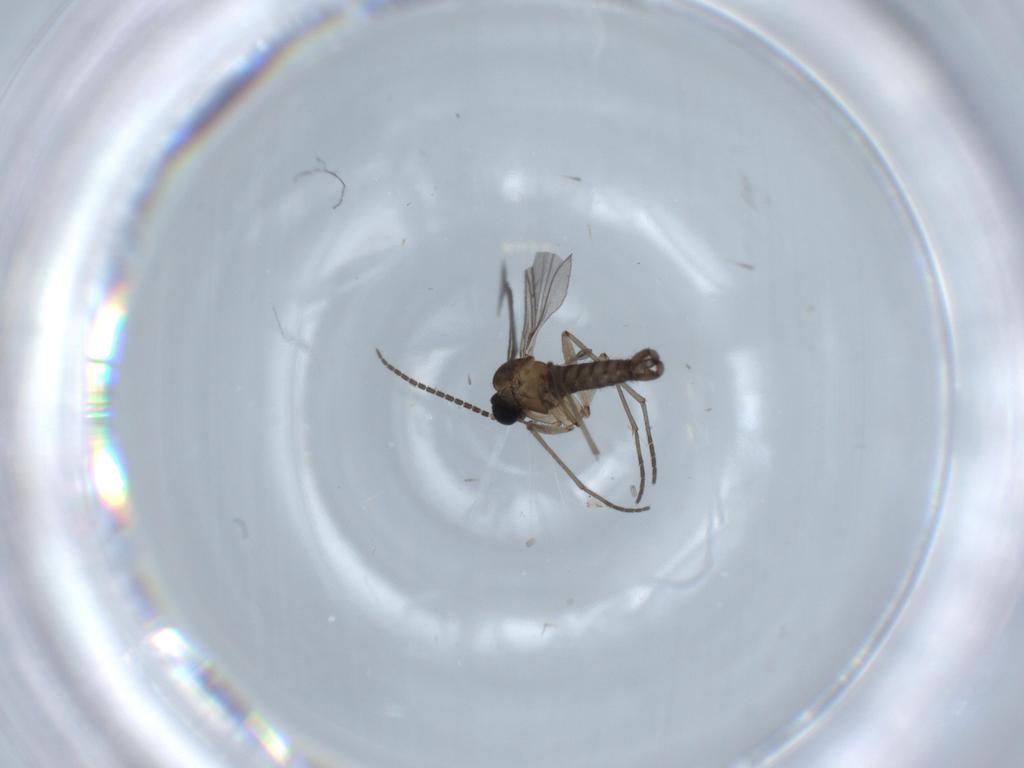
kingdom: Animalia
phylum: Arthropoda
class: Insecta
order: Diptera
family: Sciaridae
